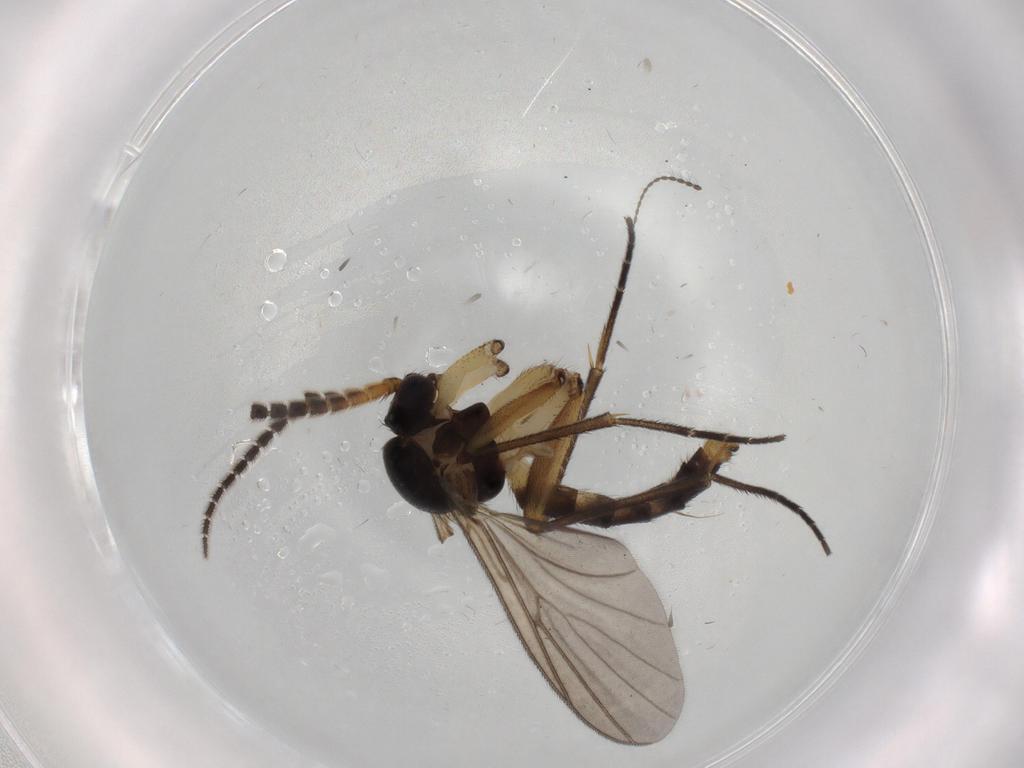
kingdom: Animalia
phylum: Arthropoda
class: Insecta
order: Diptera
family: Mycetophilidae
